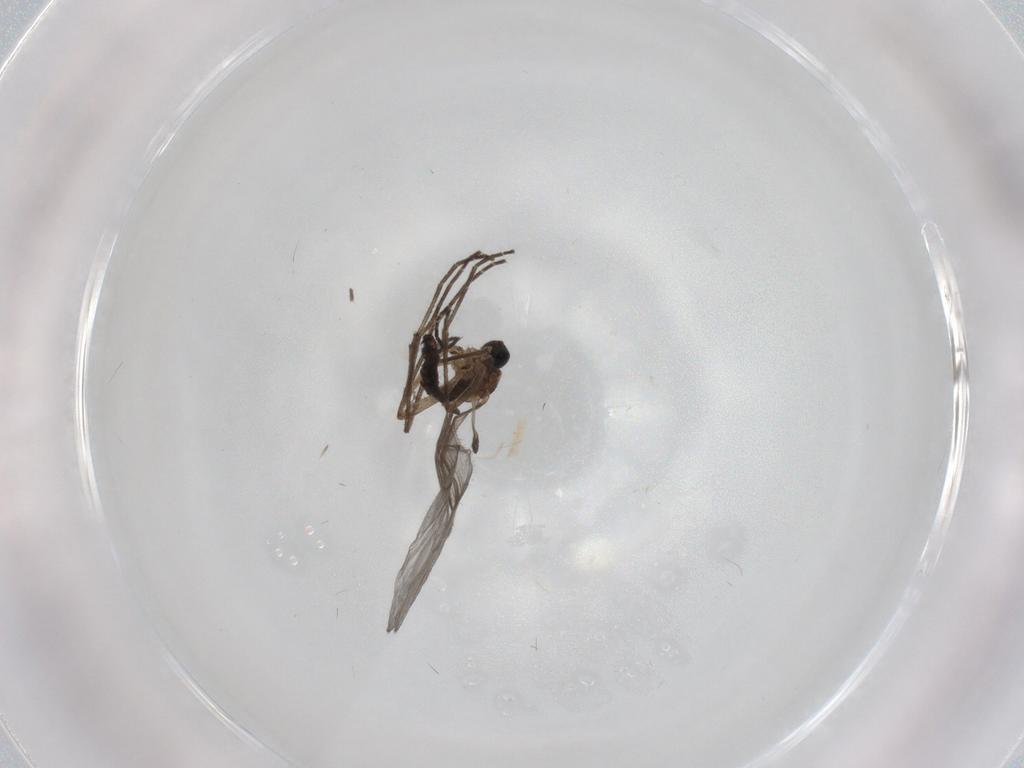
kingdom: Animalia
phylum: Arthropoda
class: Insecta
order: Diptera
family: Sciaridae
